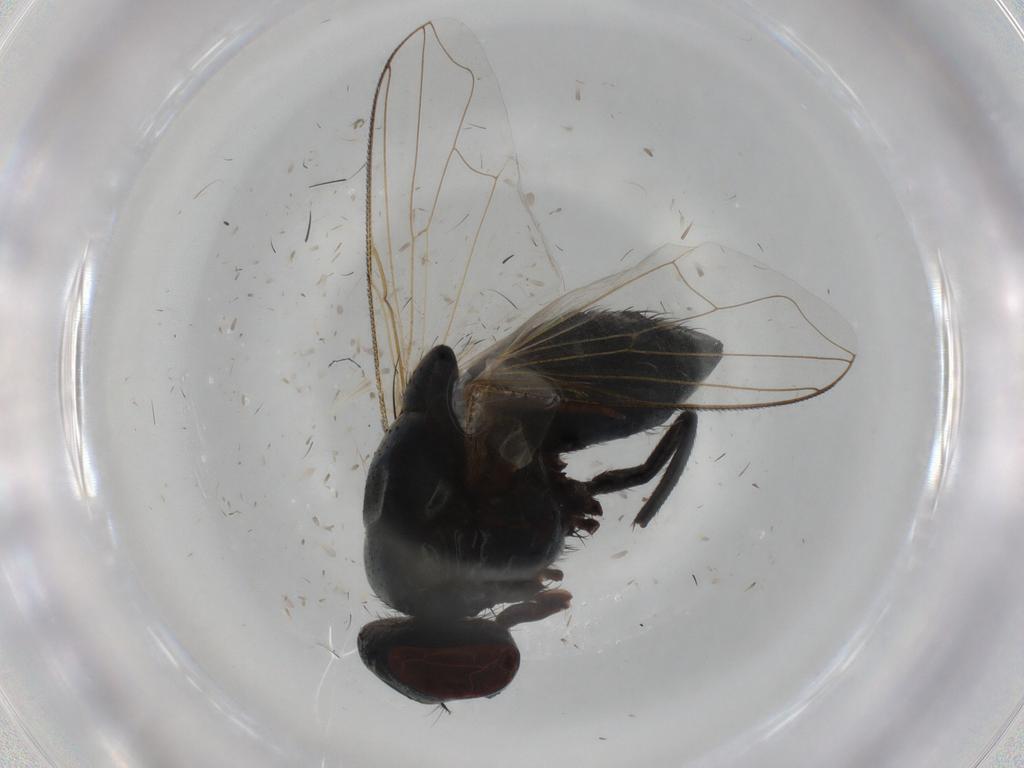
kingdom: Animalia
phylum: Arthropoda
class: Insecta
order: Diptera
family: Muscidae
